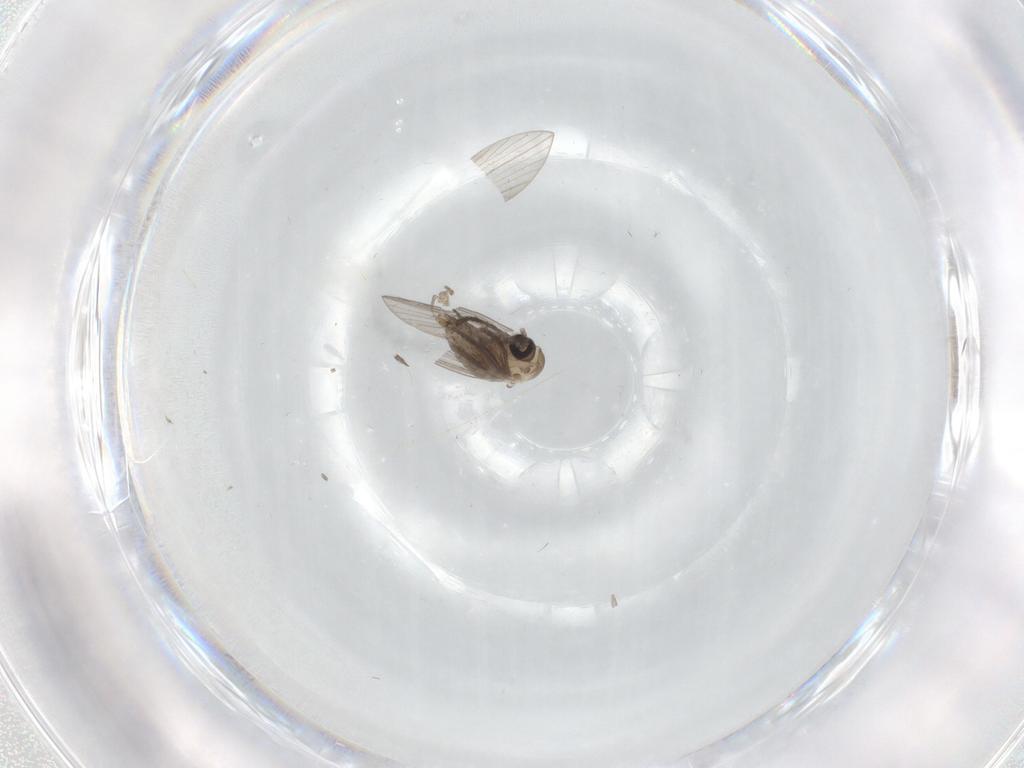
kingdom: Animalia
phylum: Arthropoda
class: Insecta
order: Diptera
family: Psychodidae
